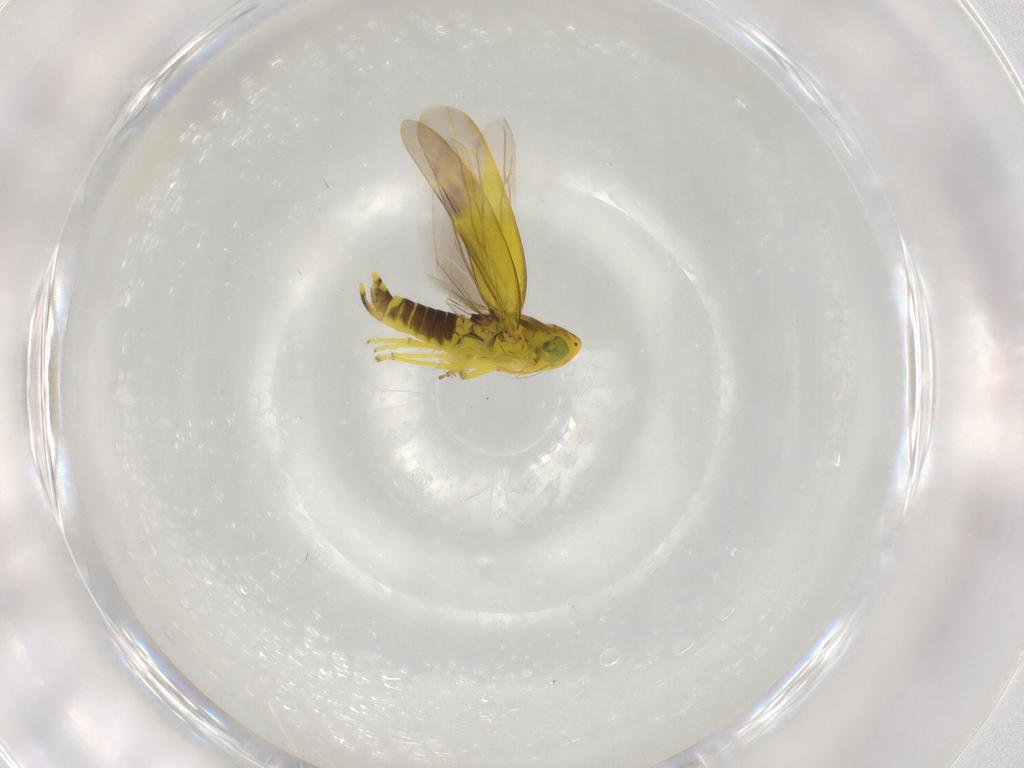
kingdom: Animalia
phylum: Arthropoda
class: Insecta
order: Hemiptera
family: Cicadellidae
